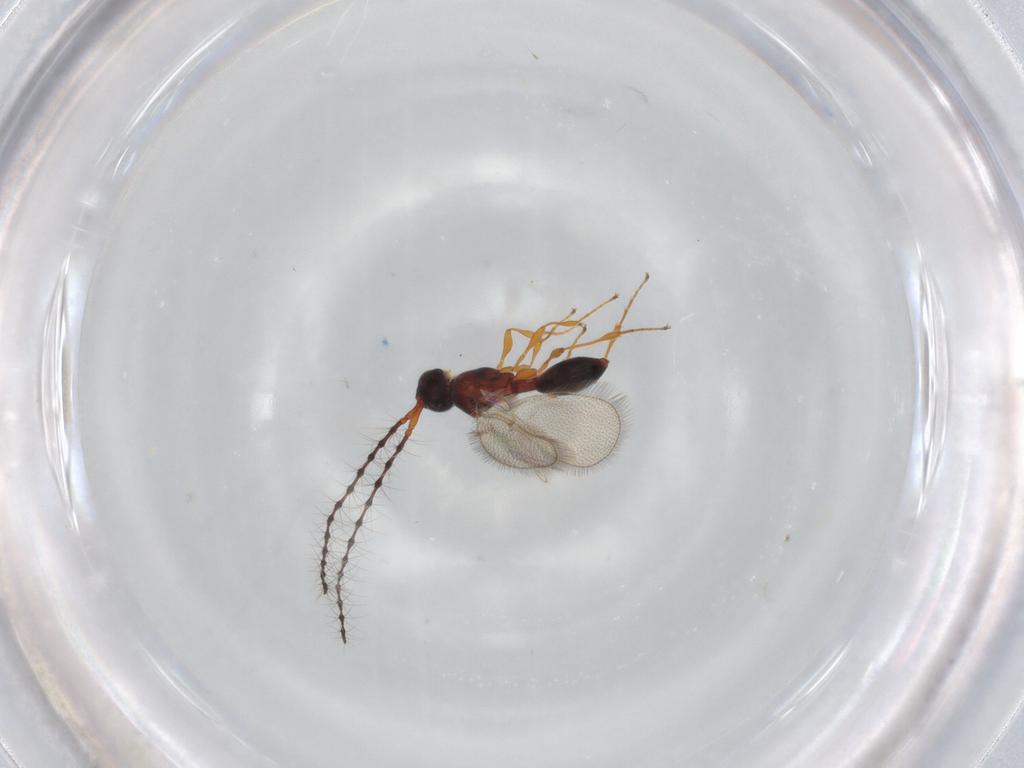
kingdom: Animalia
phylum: Arthropoda
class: Insecta
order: Hymenoptera
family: Diapriidae
